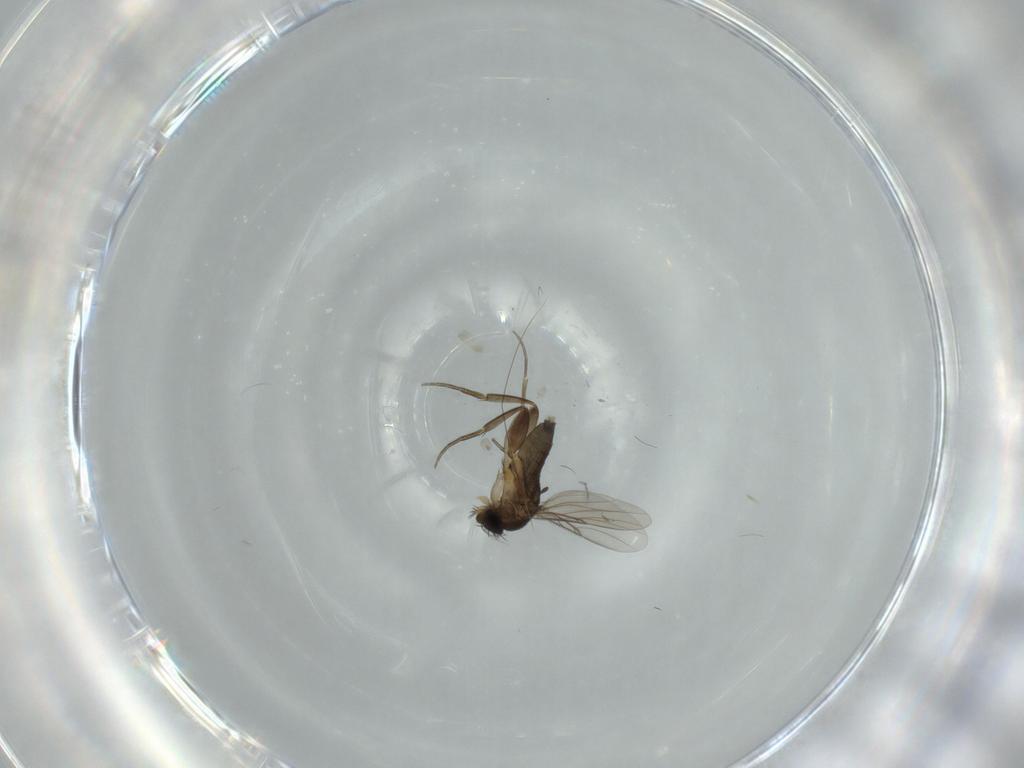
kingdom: Animalia
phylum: Arthropoda
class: Insecta
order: Diptera
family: Phoridae
